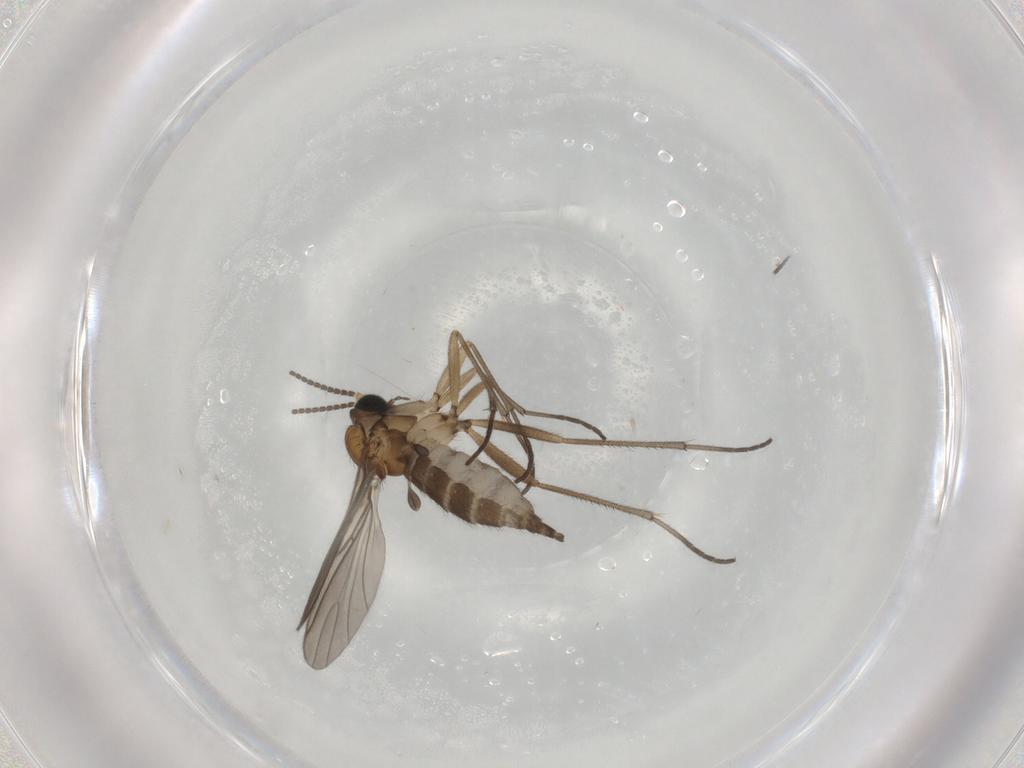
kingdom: Animalia
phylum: Arthropoda
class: Insecta
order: Diptera
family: Sciaridae
